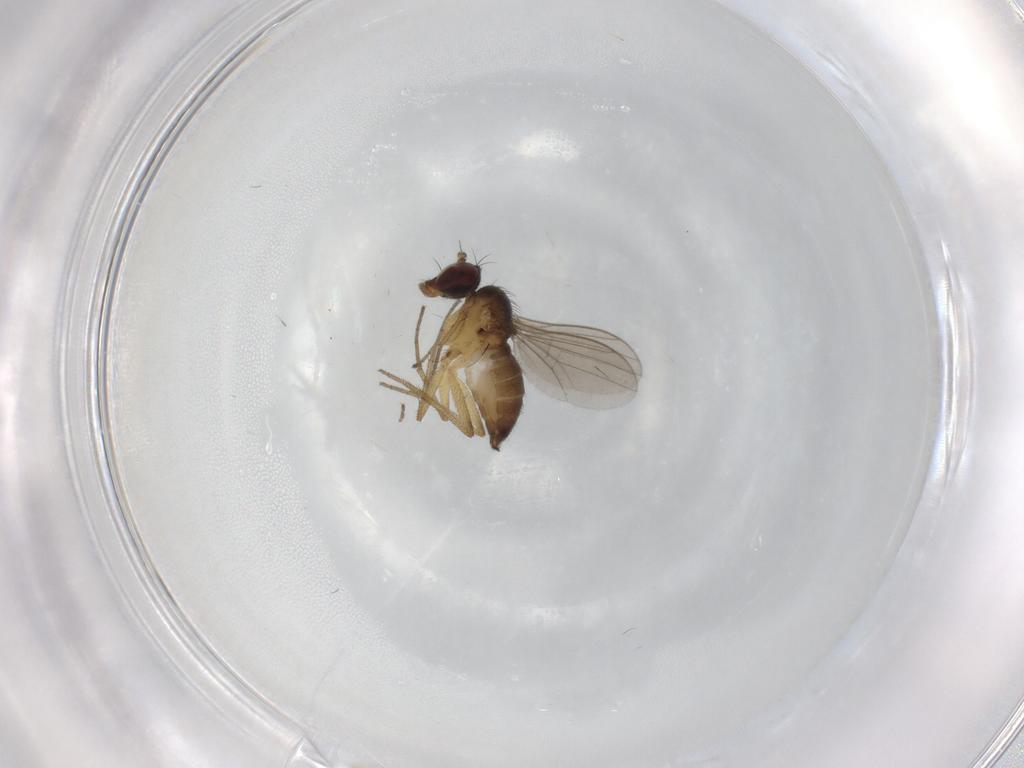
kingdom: Animalia
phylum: Arthropoda
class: Insecta
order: Diptera
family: Dolichopodidae
